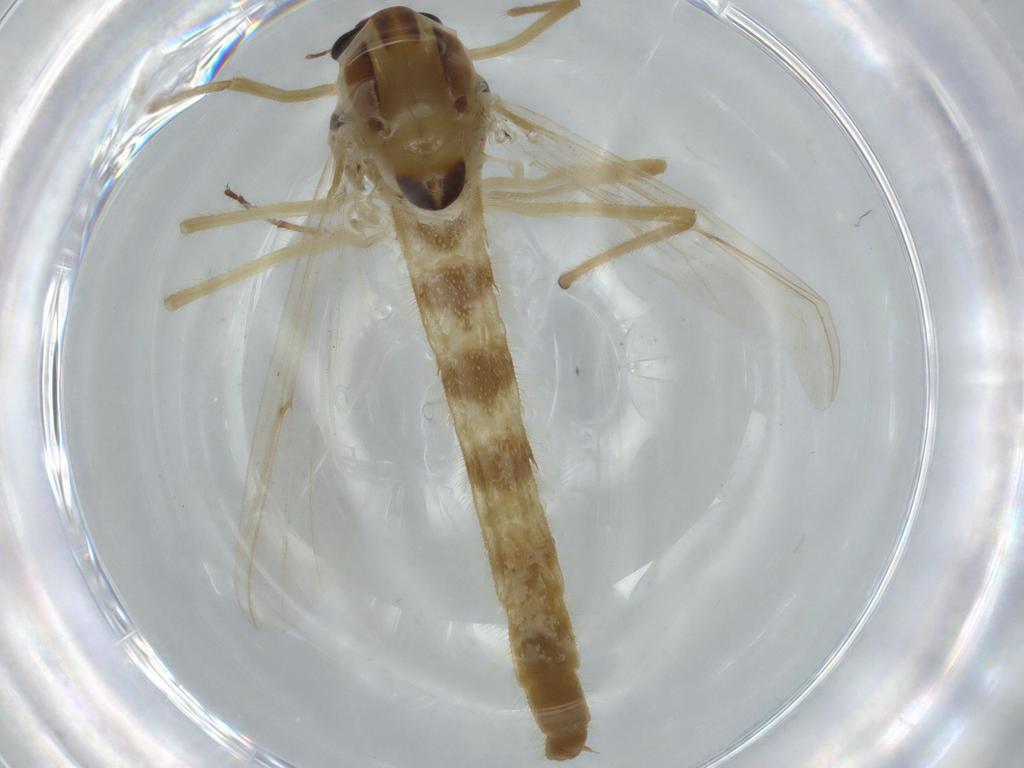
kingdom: Animalia
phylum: Arthropoda
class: Insecta
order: Diptera
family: Chironomidae
